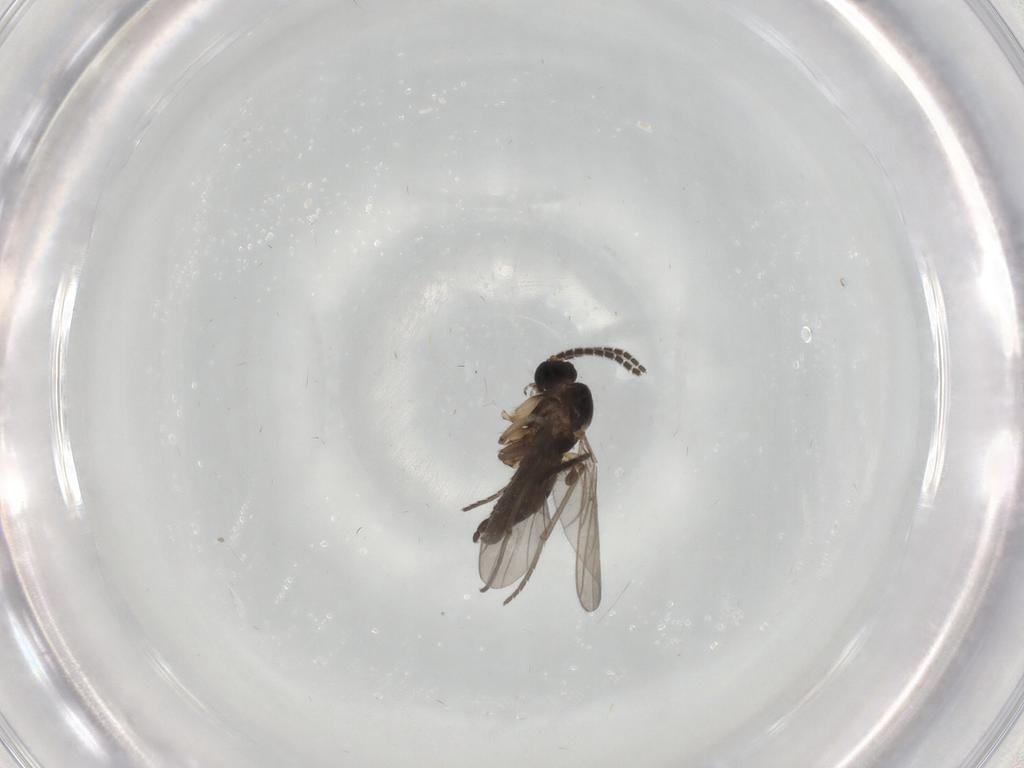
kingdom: Animalia
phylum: Arthropoda
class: Insecta
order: Diptera
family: Sciaridae
